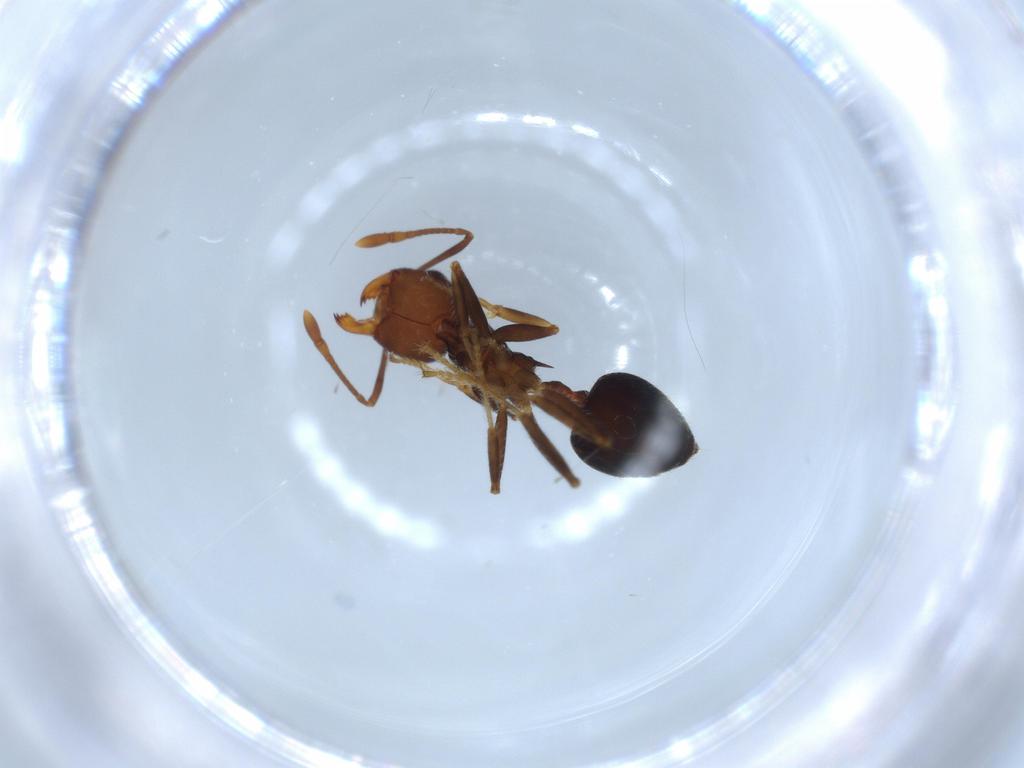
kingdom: Animalia
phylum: Arthropoda
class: Insecta
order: Hymenoptera
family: Formicidae
